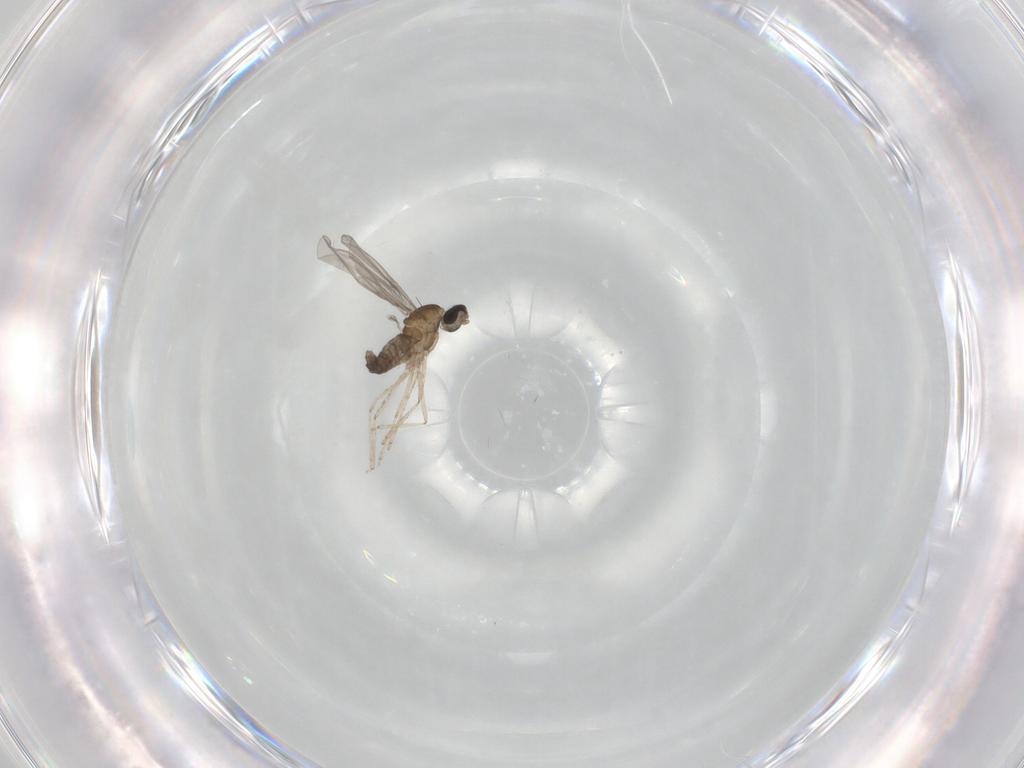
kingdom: Animalia
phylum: Arthropoda
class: Insecta
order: Diptera
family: Cecidomyiidae
